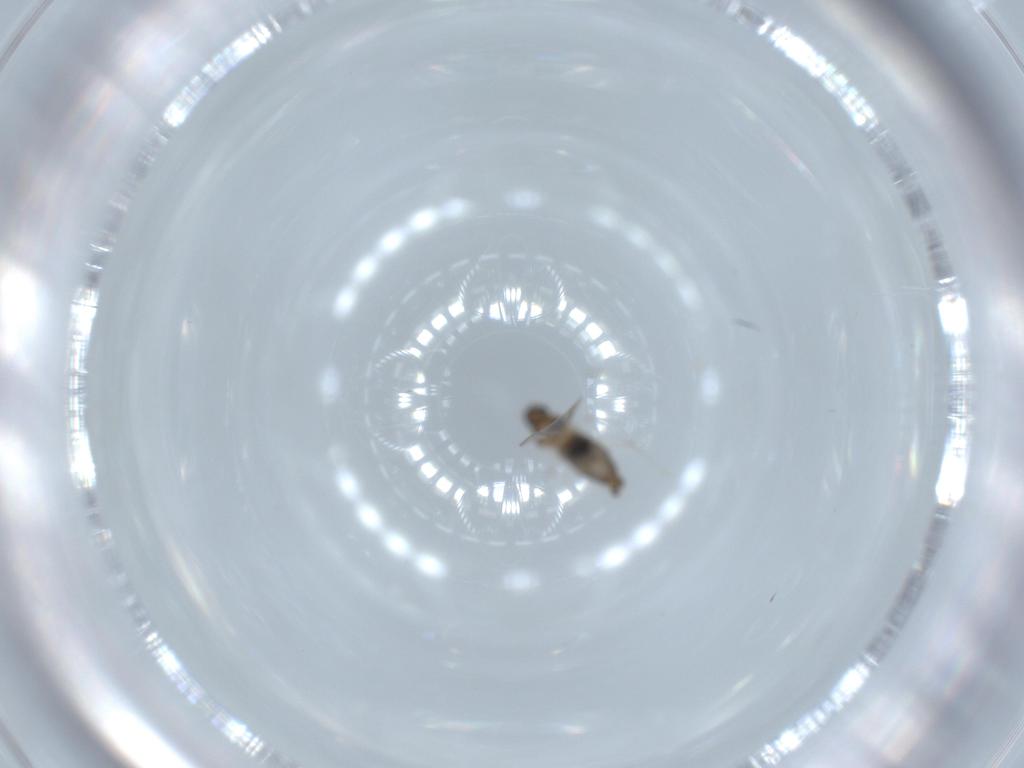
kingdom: Animalia
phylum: Arthropoda
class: Insecta
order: Diptera
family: Cecidomyiidae
